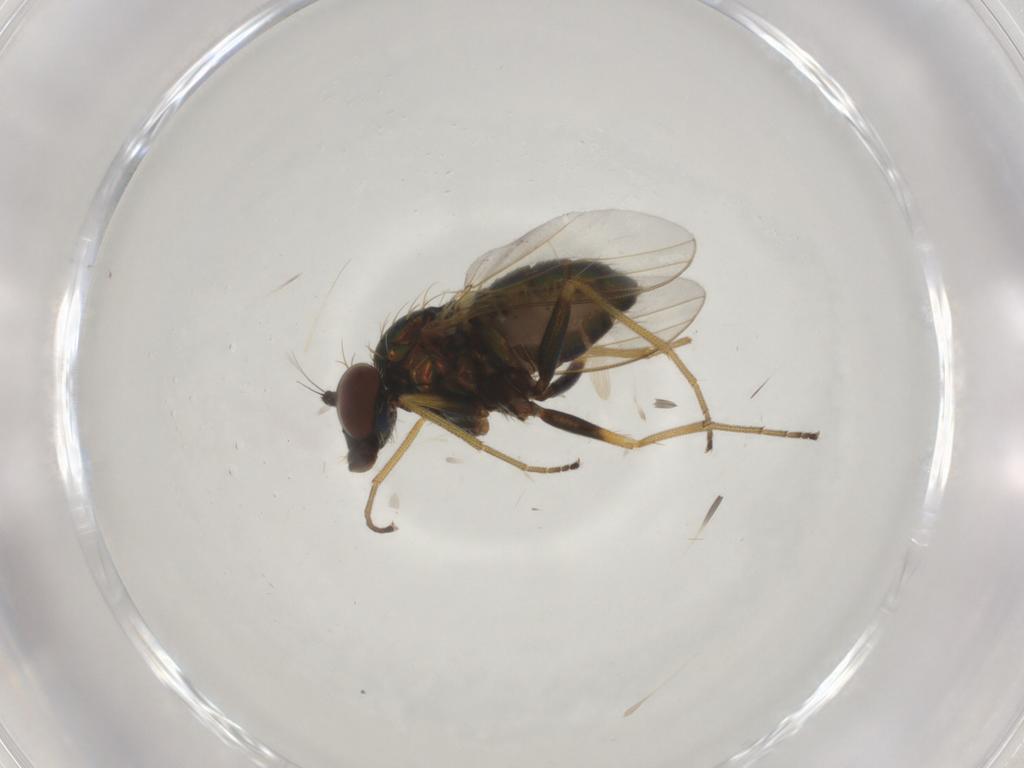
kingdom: Animalia
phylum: Arthropoda
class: Insecta
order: Diptera
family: Dolichopodidae
